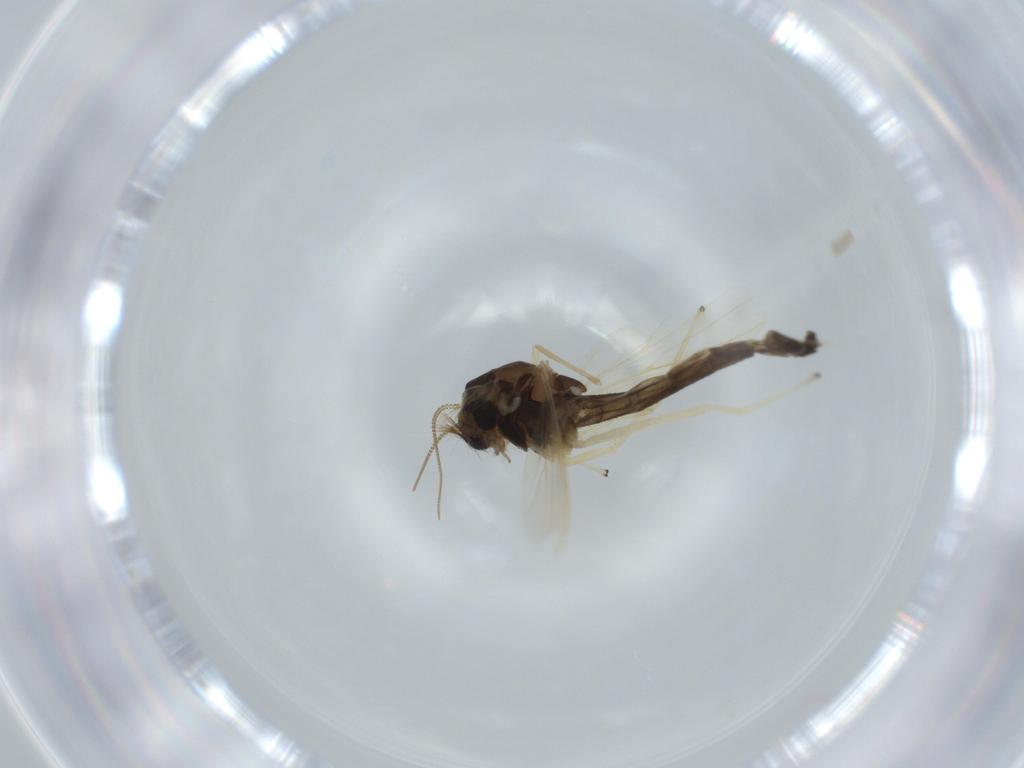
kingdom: Animalia
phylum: Arthropoda
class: Insecta
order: Diptera
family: Chironomidae
